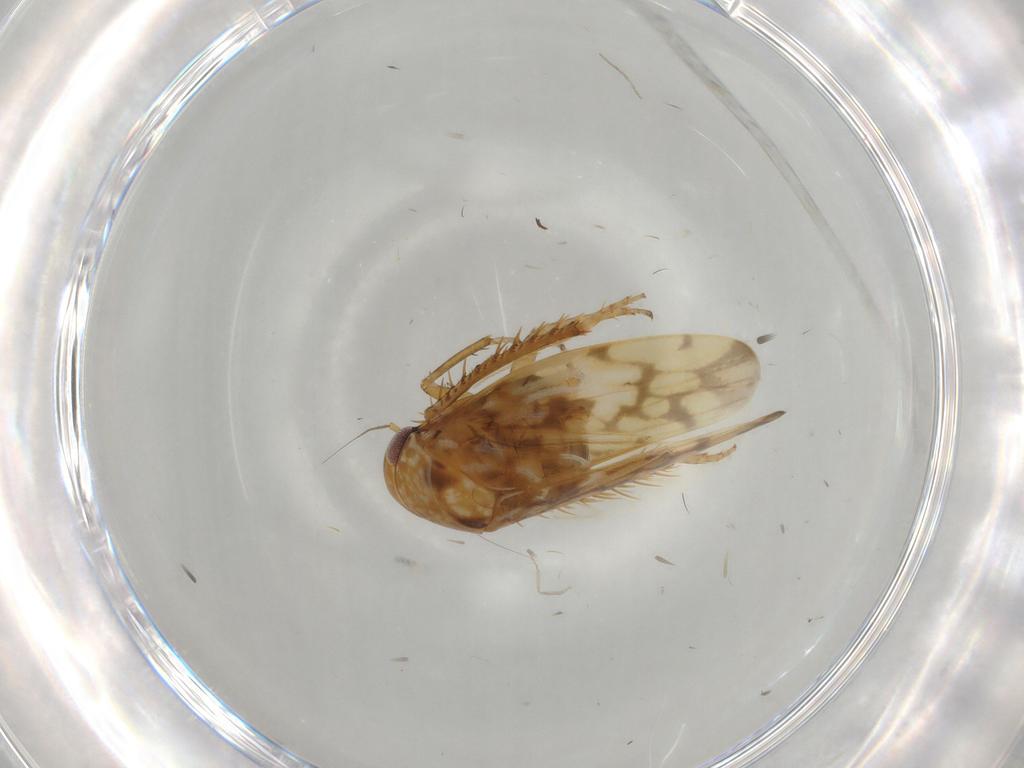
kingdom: Animalia
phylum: Arthropoda
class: Insecta
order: Hemiptera
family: Cicadellidae
